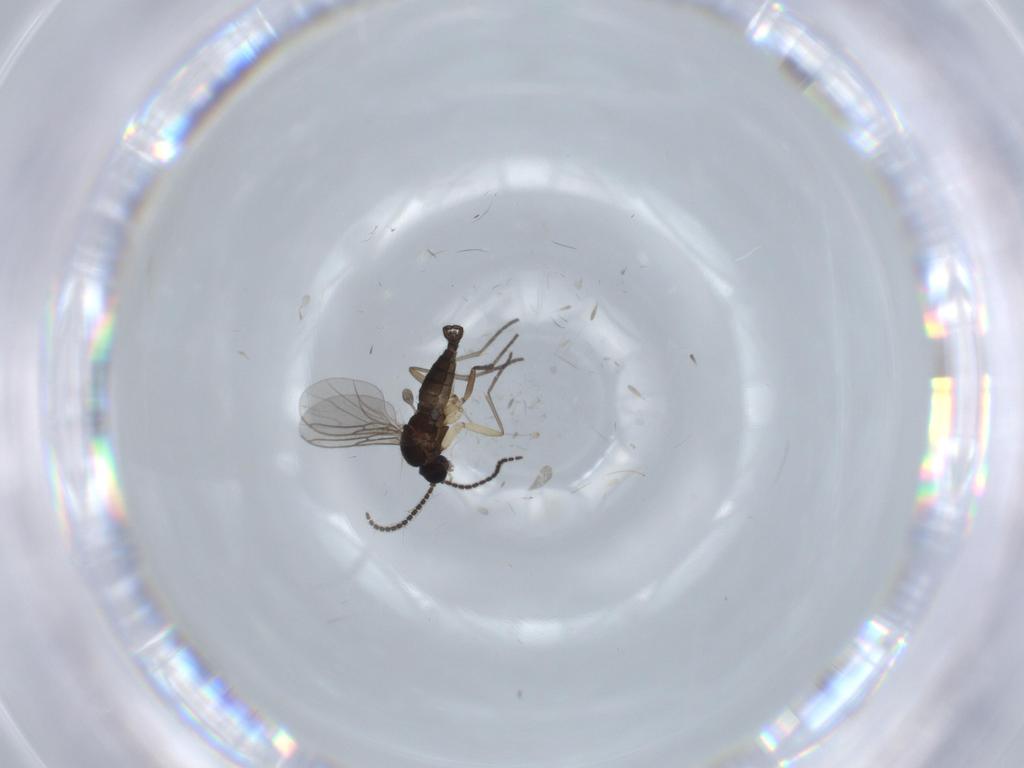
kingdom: Animalia
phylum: Arthropoda
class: Insecta
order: Diptera
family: Sciaridae
